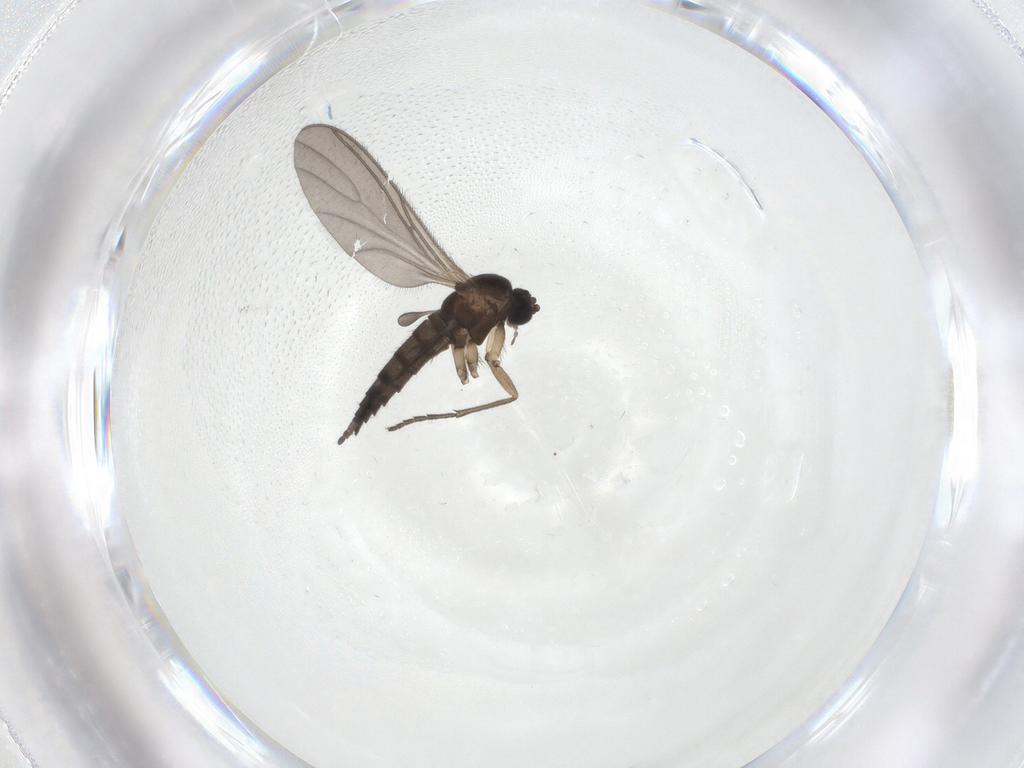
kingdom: Animalia
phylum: Arthropoda
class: Insecta
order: Diptera
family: Sciaridae
